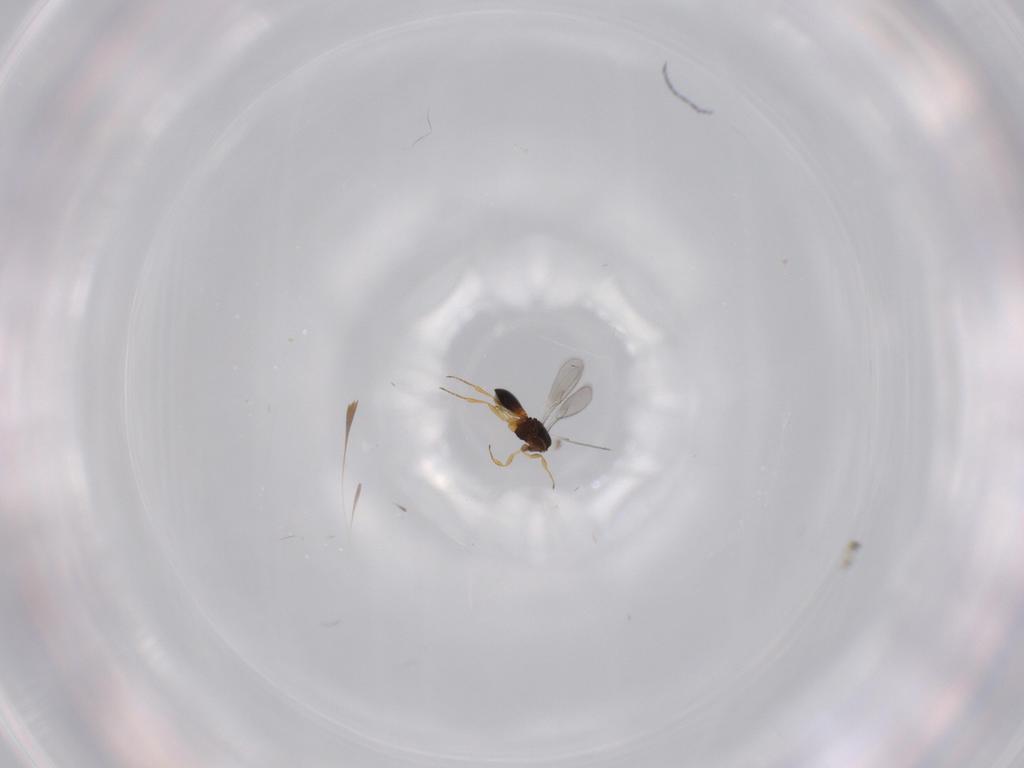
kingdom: Animalia
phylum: Arthropoda
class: Insecta
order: Hymenoptera
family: Scelionidae
